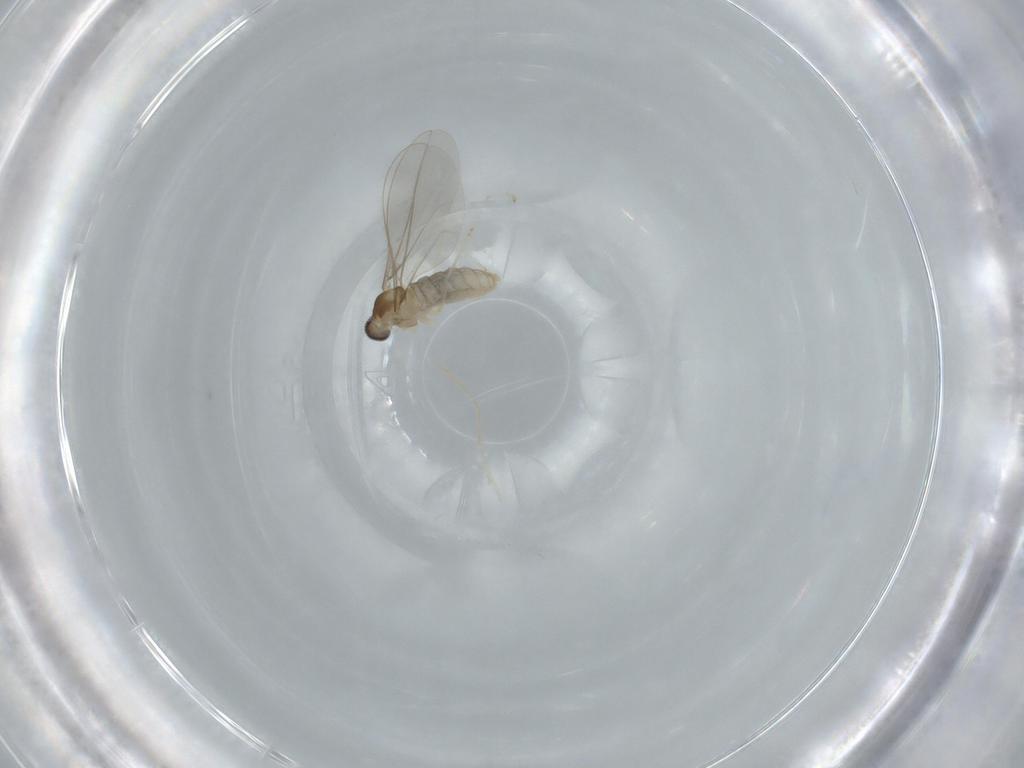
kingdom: Animalia
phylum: Arthropoda
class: Insecta
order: Diptera
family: Cecidomyiidae
